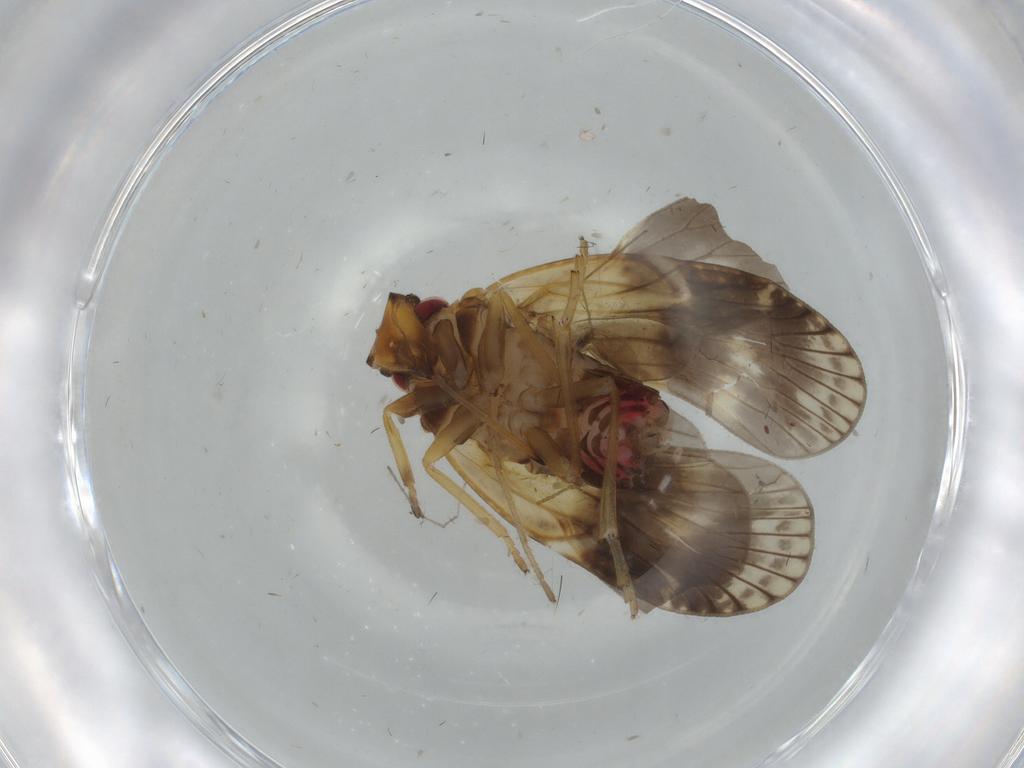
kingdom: Animalia
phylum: Arthropoda
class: Insecta
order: Hemiptera
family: Cixiidae
